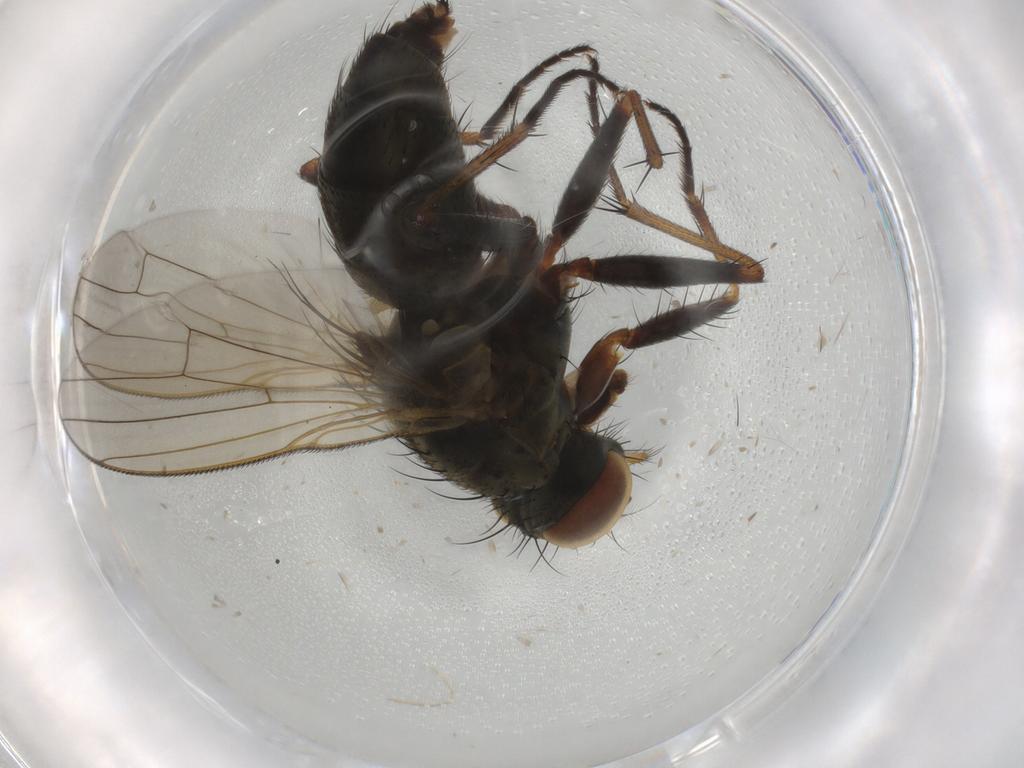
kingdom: Animalia
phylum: Arthropoda
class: Insecta
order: Diptera
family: Muscidae
